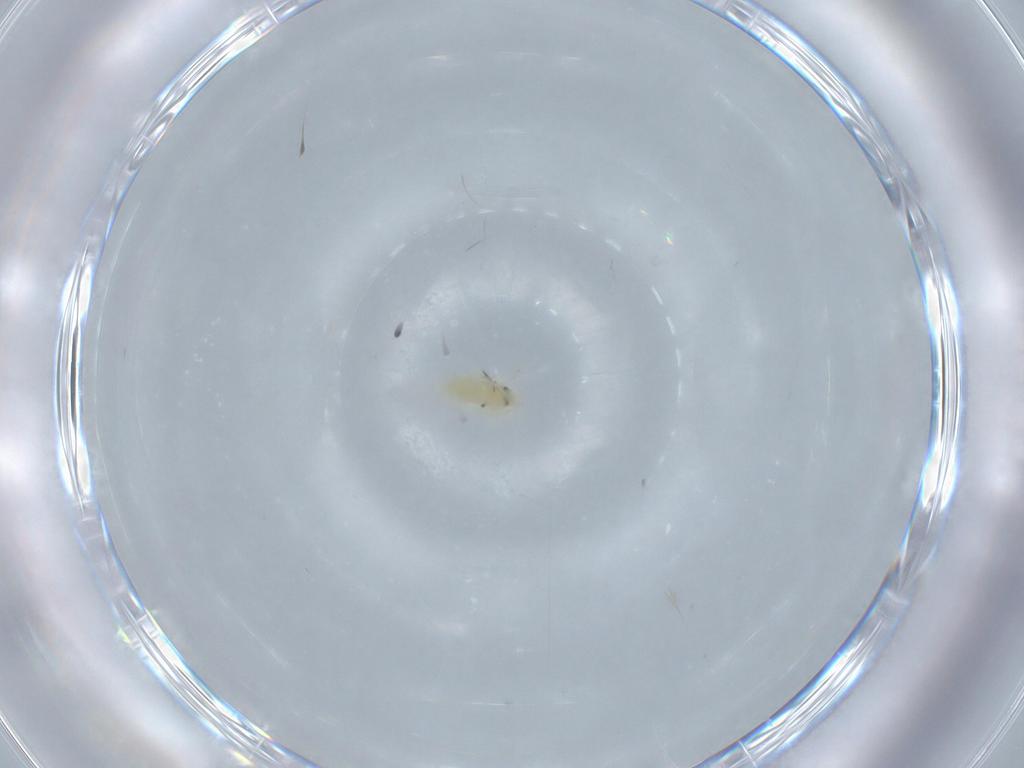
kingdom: Animalia
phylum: Arthropoda
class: Insecta
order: Hemiptera
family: Aleyrodidae
